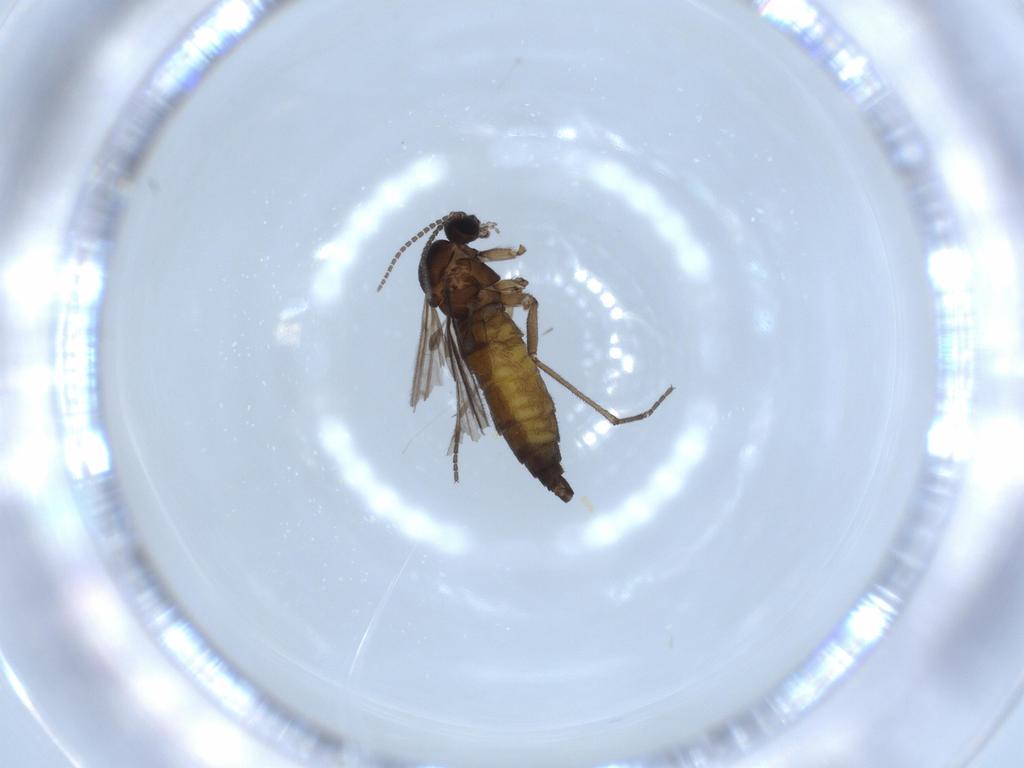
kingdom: Animalia
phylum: Arthropoda
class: Insecta
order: Diptera
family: Sciaridae
